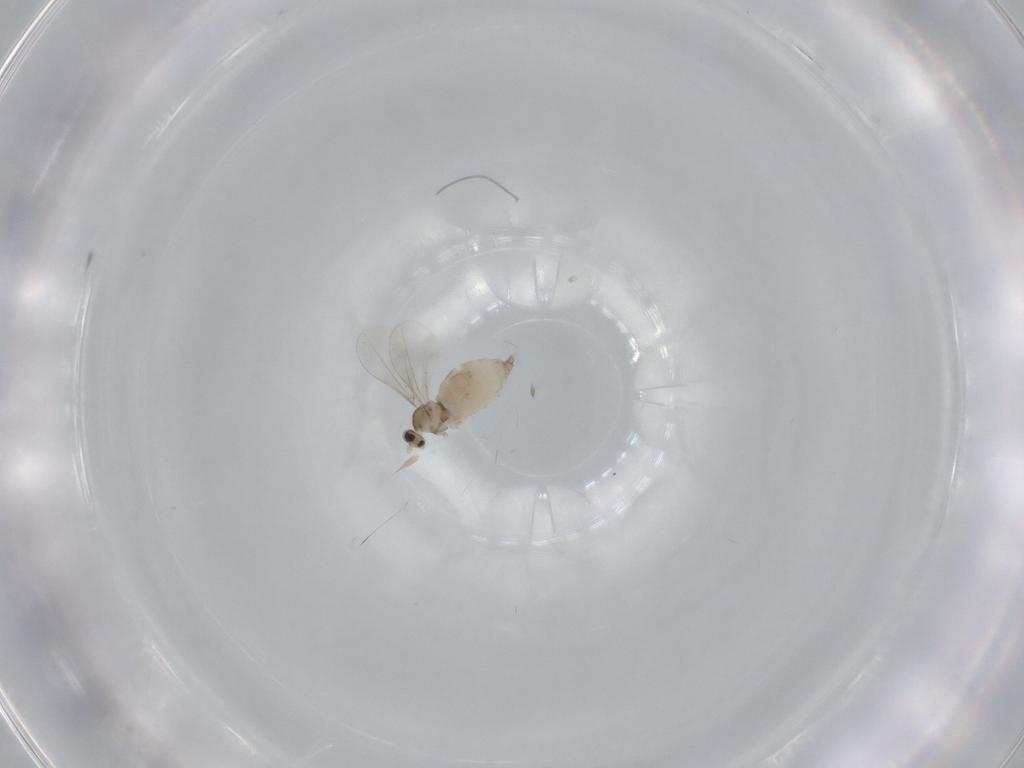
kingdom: Animalia
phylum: Arthropoda
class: Insecta
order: Diptera
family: Cecidomyiidae
